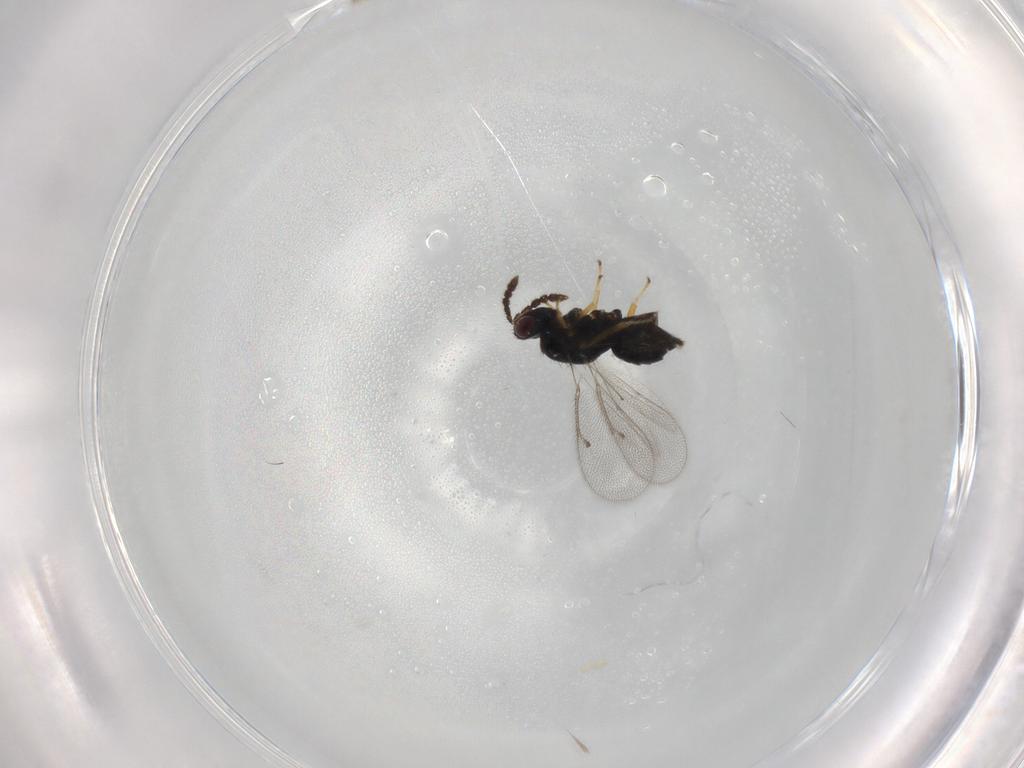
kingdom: Animalia
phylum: Arthropoda
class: Insecta
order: Hymenoptera
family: Eulophidae
